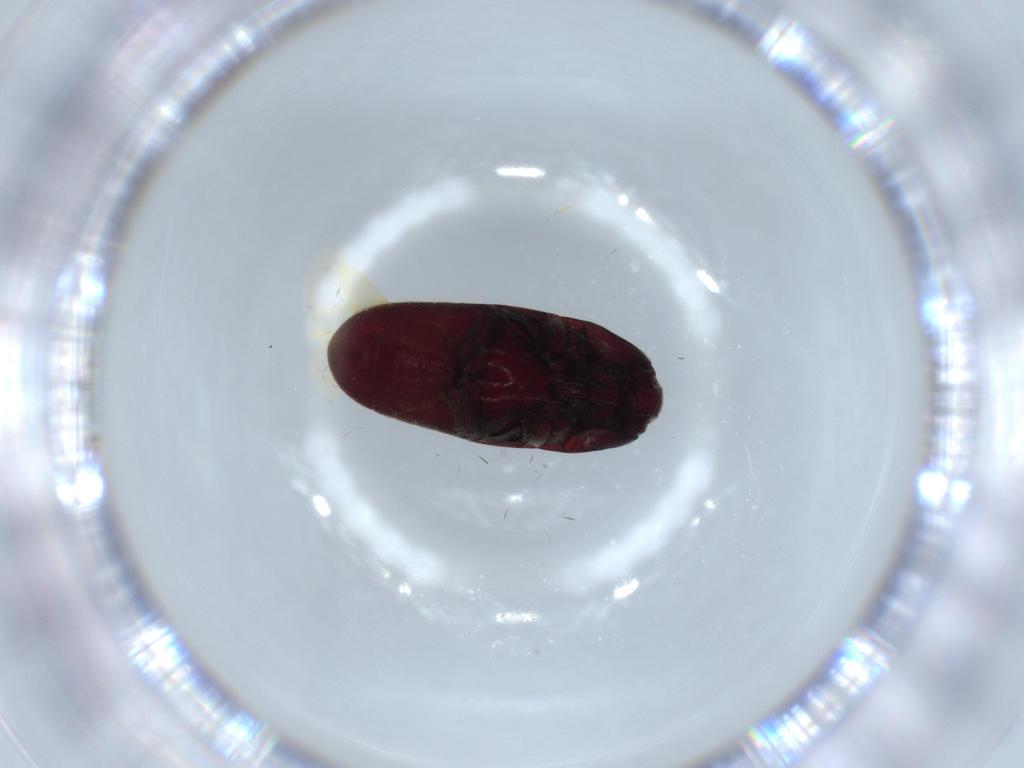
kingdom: Animalia
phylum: Arthropoda
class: Insecta
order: Coleoptera
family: Throscidae
